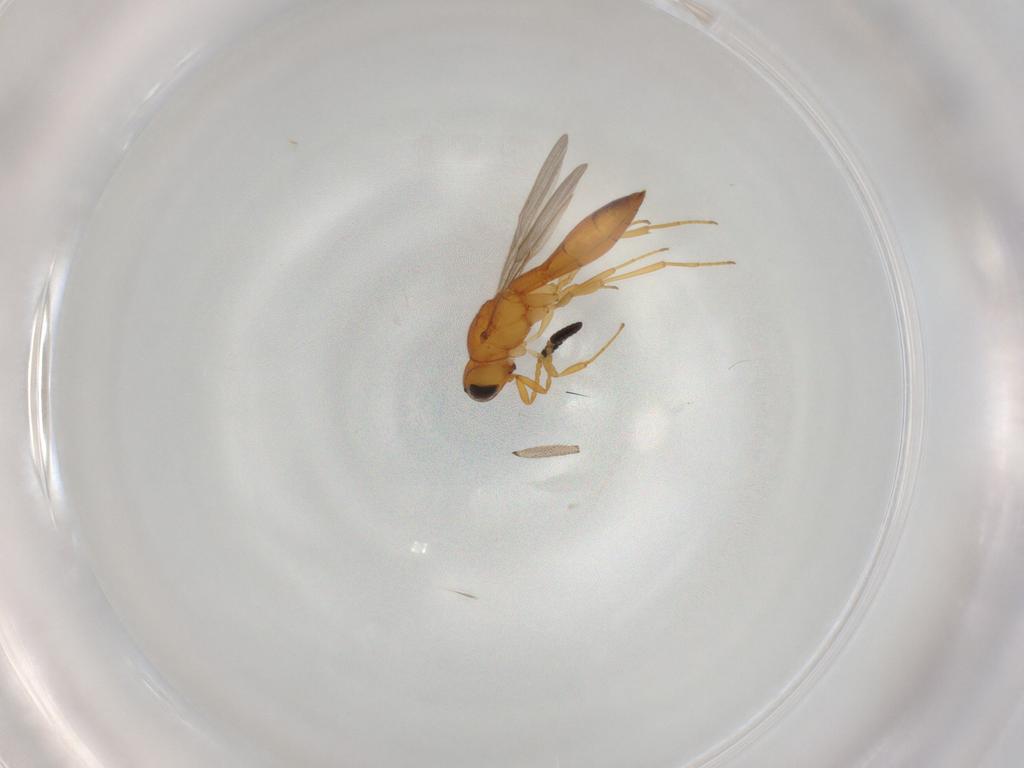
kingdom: Animalia
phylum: Arthropoda
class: Insecta
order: Hymenoptera
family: Scelionidae
